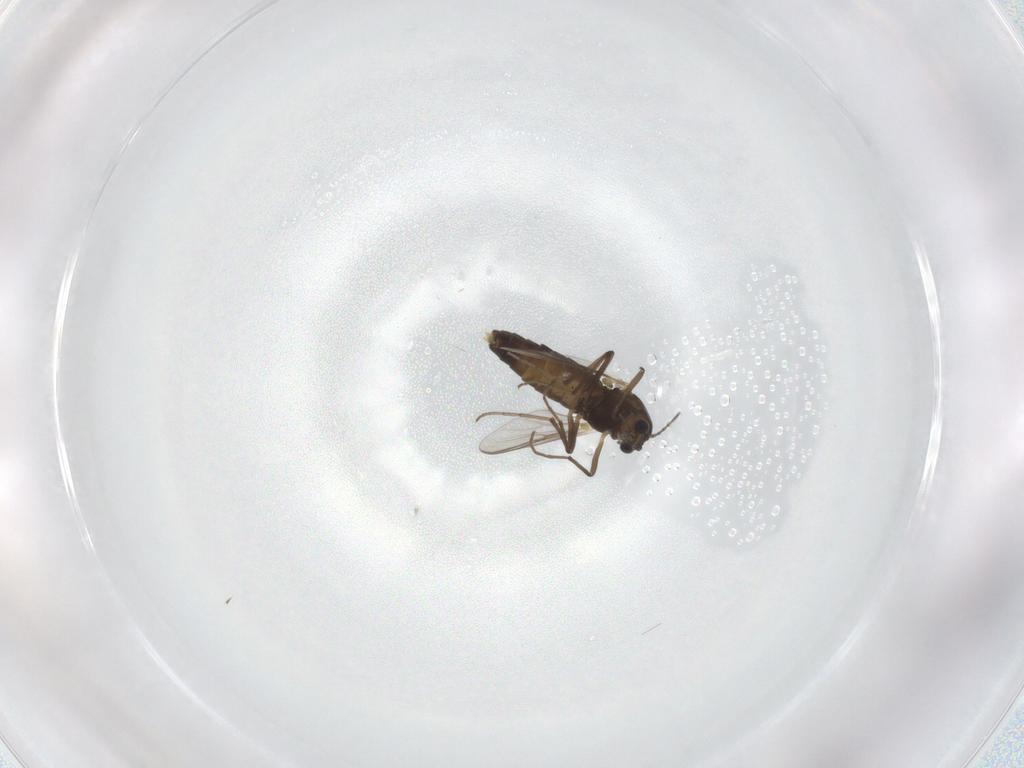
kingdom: Animalia
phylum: Arthropoda
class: Insecta
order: Diptera
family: Chironomidae
